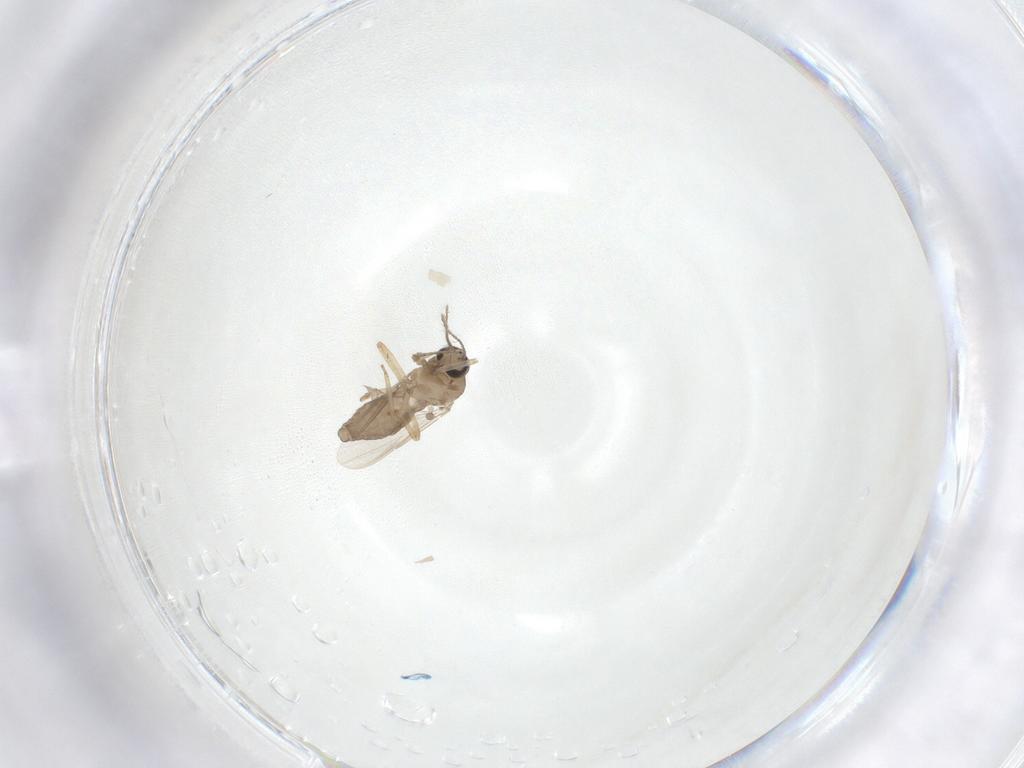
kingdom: Animalia
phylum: Arthropoda
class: Insecta
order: Diptera
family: Ceratopogonidae
